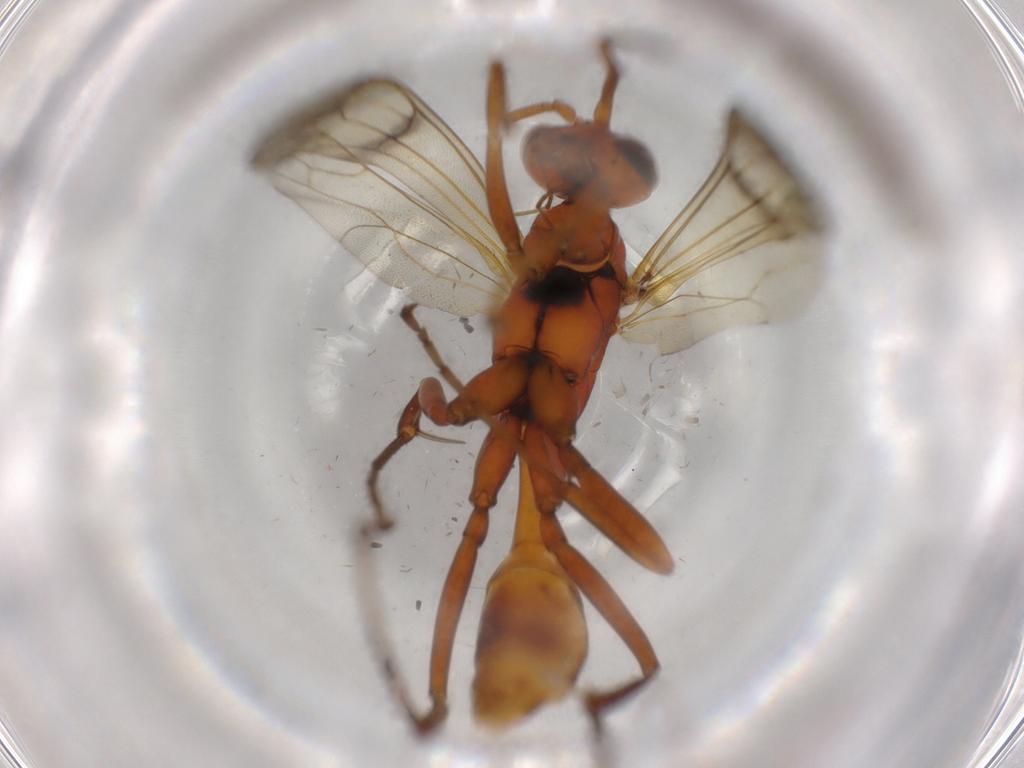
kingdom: Animalia
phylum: Arthropoda
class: Insecta
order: Hymenoptera
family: Pompilidae
